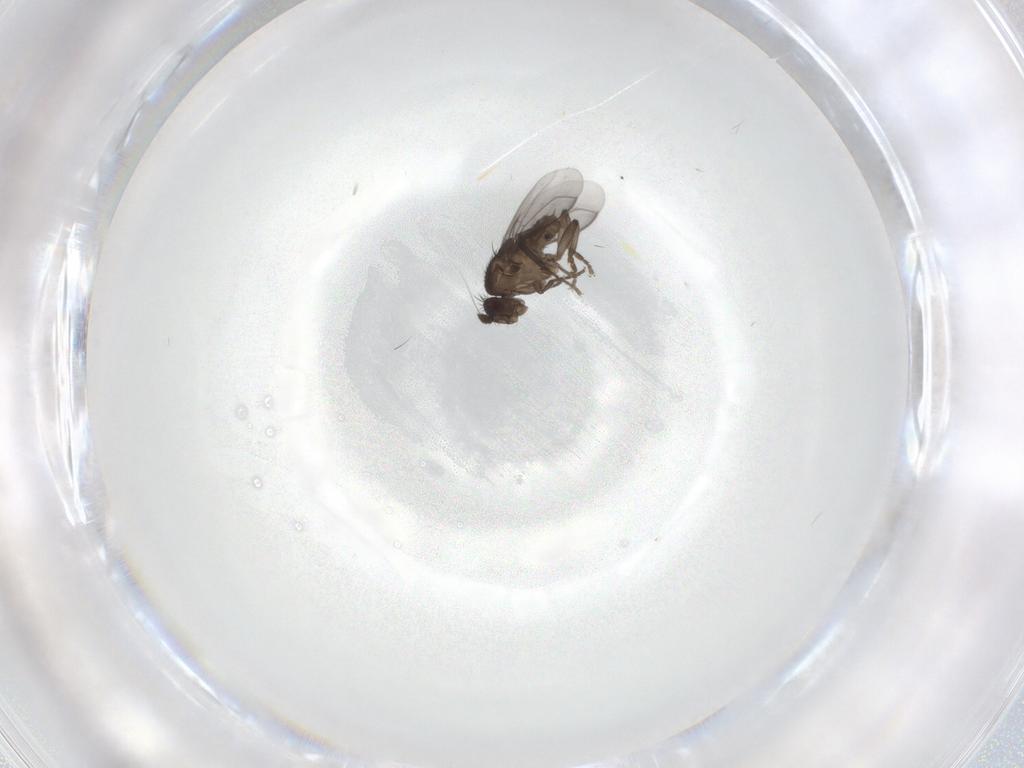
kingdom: Animalia
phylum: Arthropoda
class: Insecta
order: Diptera
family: Sphaeroceridae
